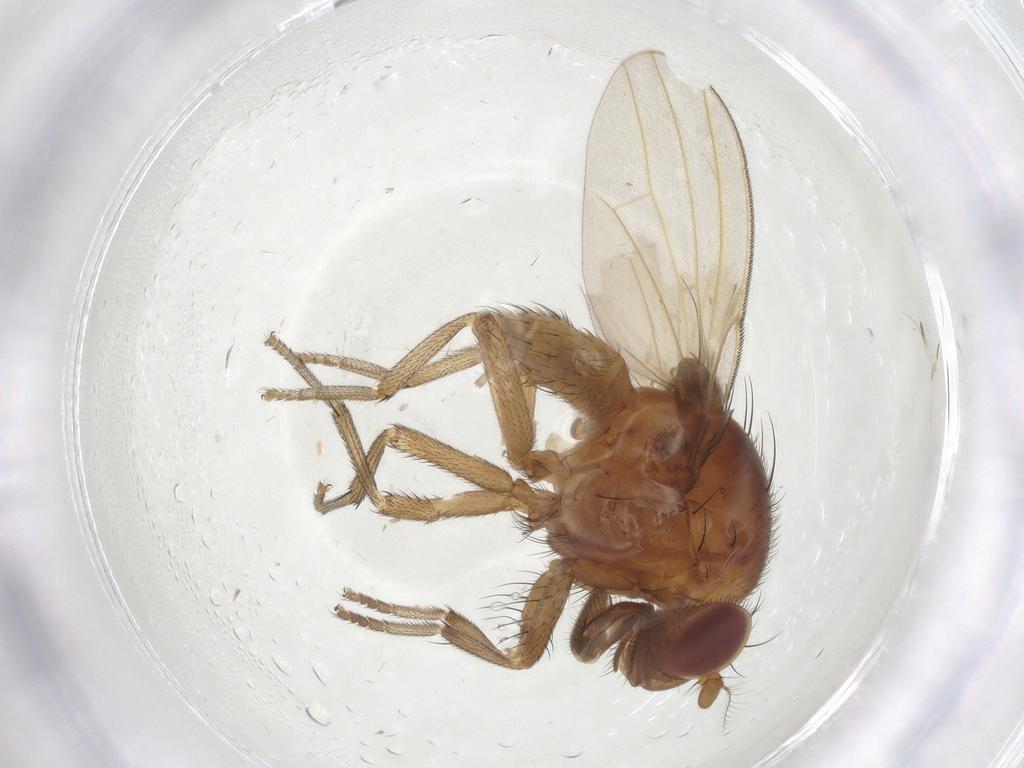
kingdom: Animalia
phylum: Arthropoda
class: Insecta
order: Diptera
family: Lauxaniidae
